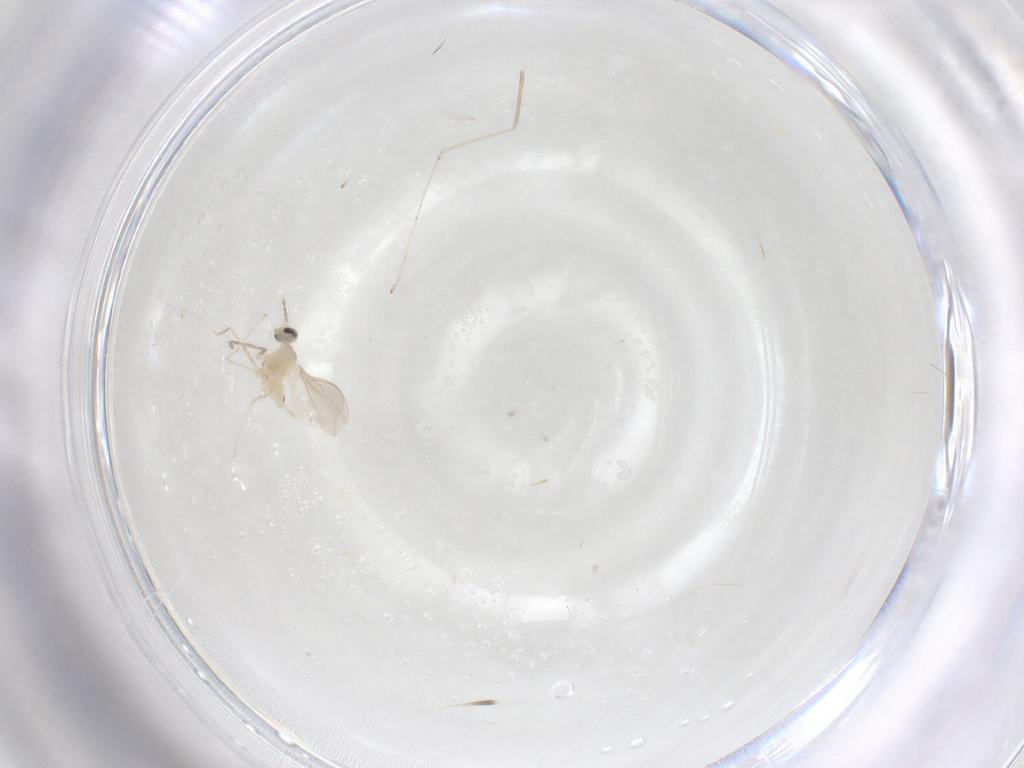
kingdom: Animalia
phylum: Arthropoda
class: Insecta
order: Diptera
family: Cecidomyiidae
